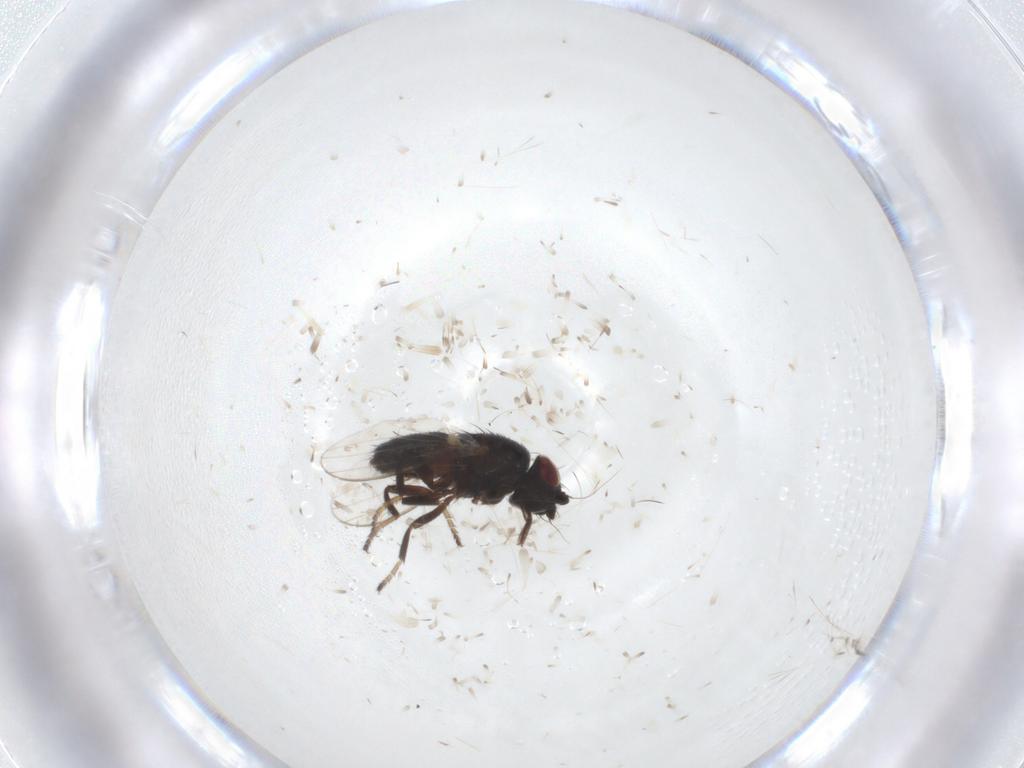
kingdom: Animalia
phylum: Arthropoda
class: Insecta
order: Diptera
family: Milichiidae
